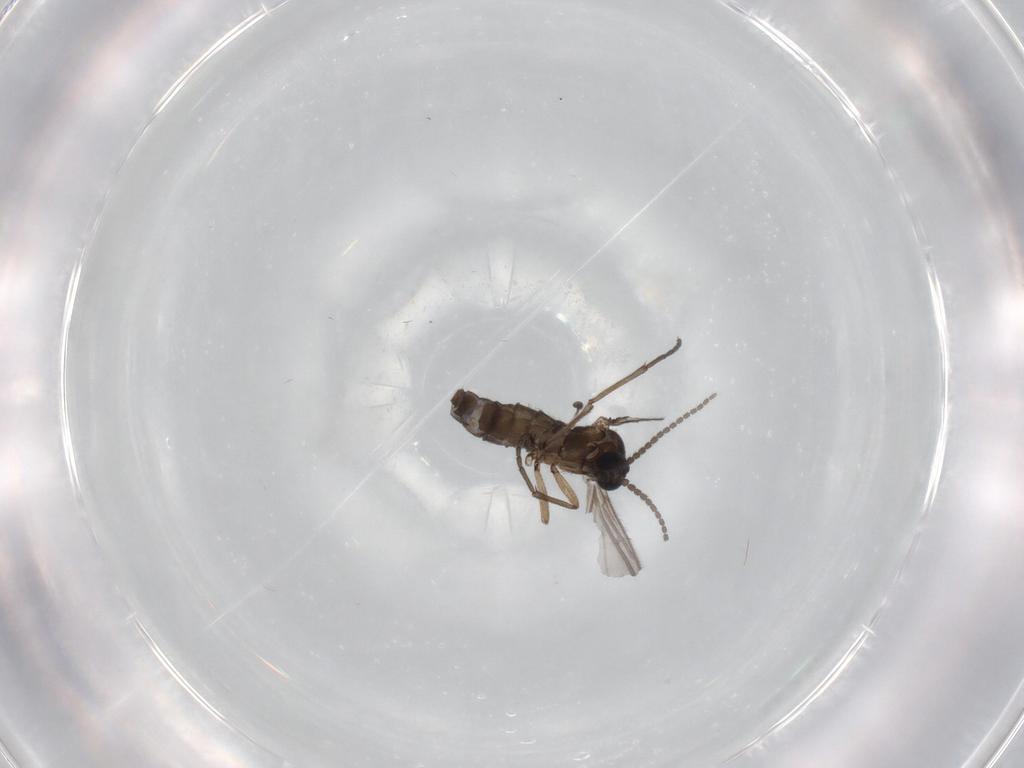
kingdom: Animalia
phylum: Arthropoda
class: Insecta
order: Diptera
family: Sciaridae
